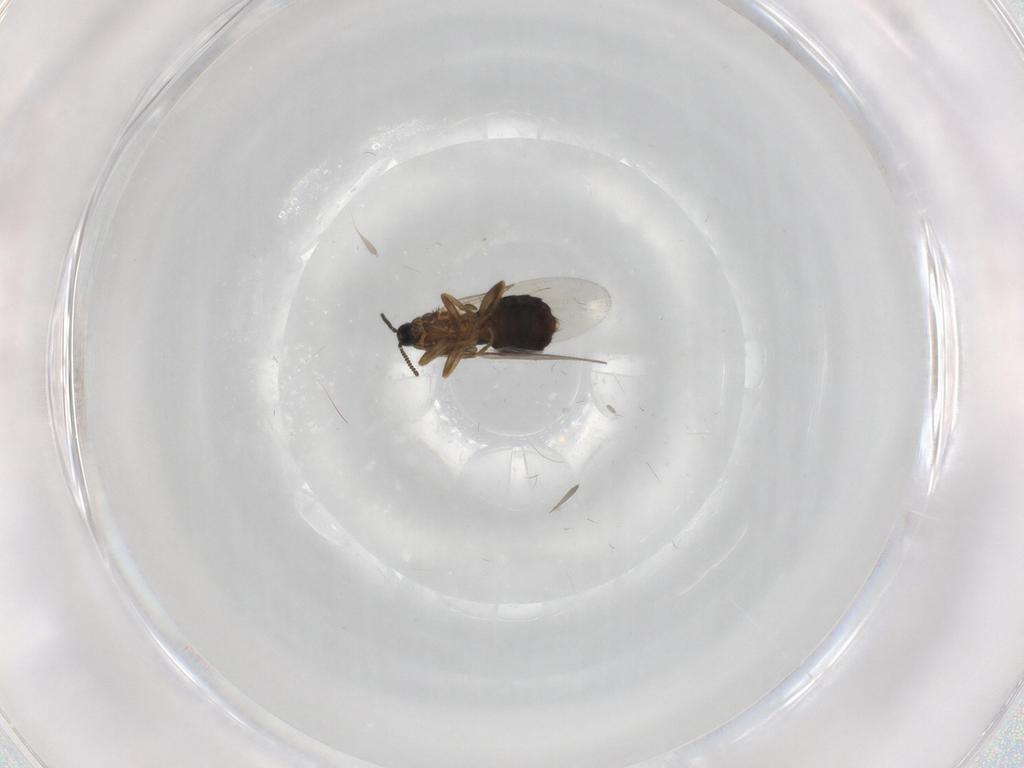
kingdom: Animalia
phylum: Arthropoda
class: Insecta
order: Diptera
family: Scatopsidae
